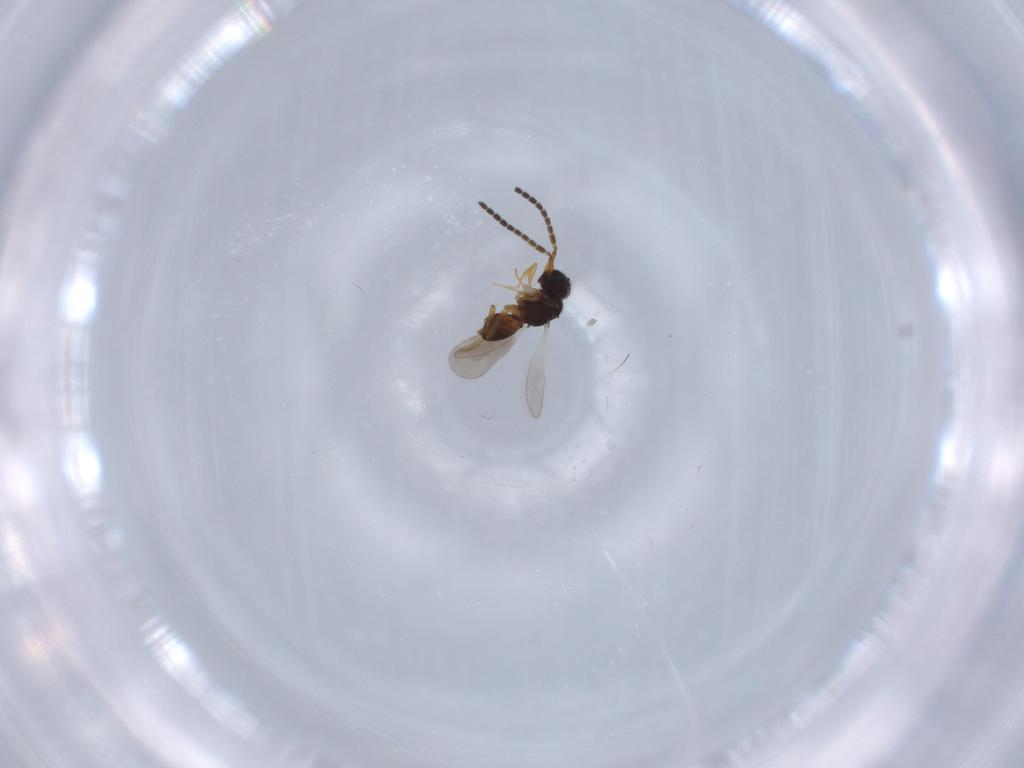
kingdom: Animalia
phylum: Arthropoda
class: Insecta
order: Hymenoptera
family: Ceraphronidae
